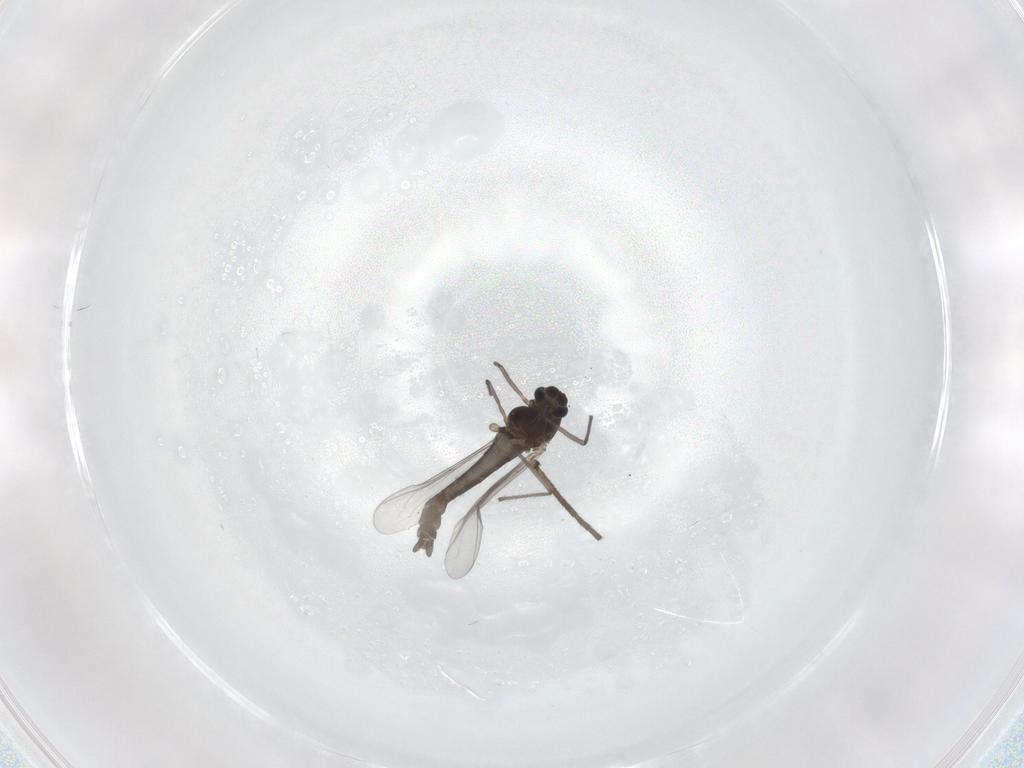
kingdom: Animalia
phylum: Arthropoda
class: Insecta
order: Diptera
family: Chironomidae
